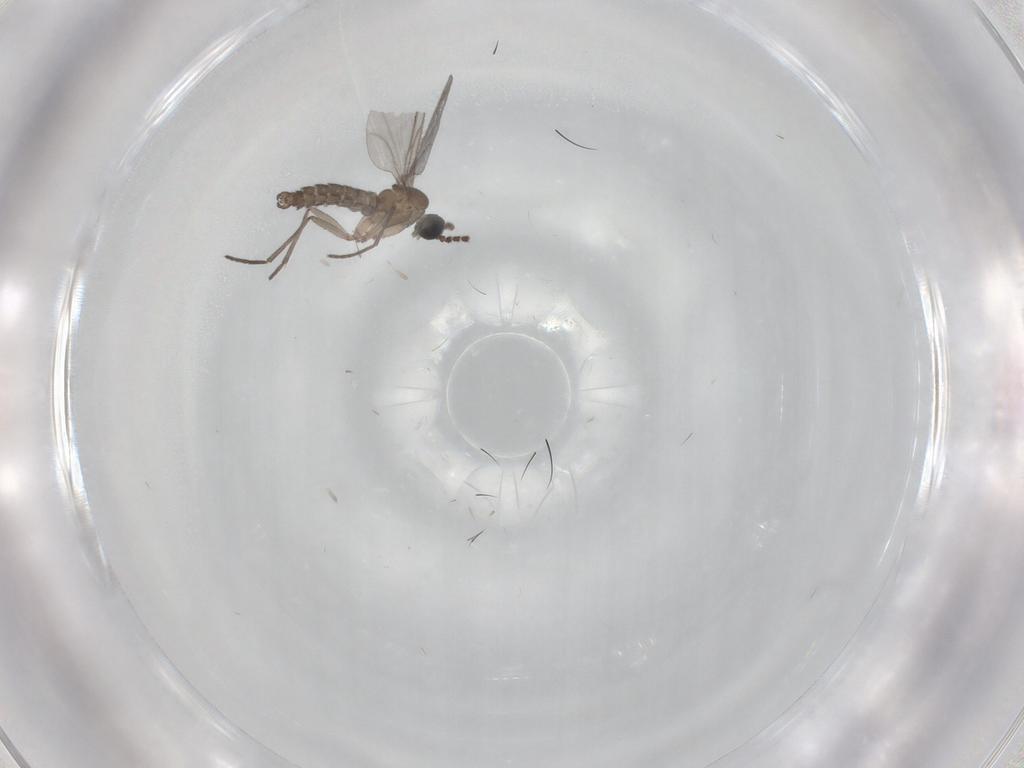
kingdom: Animalia
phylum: Arthropoda
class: Insecta
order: Diptera
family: Dolichopodidae
